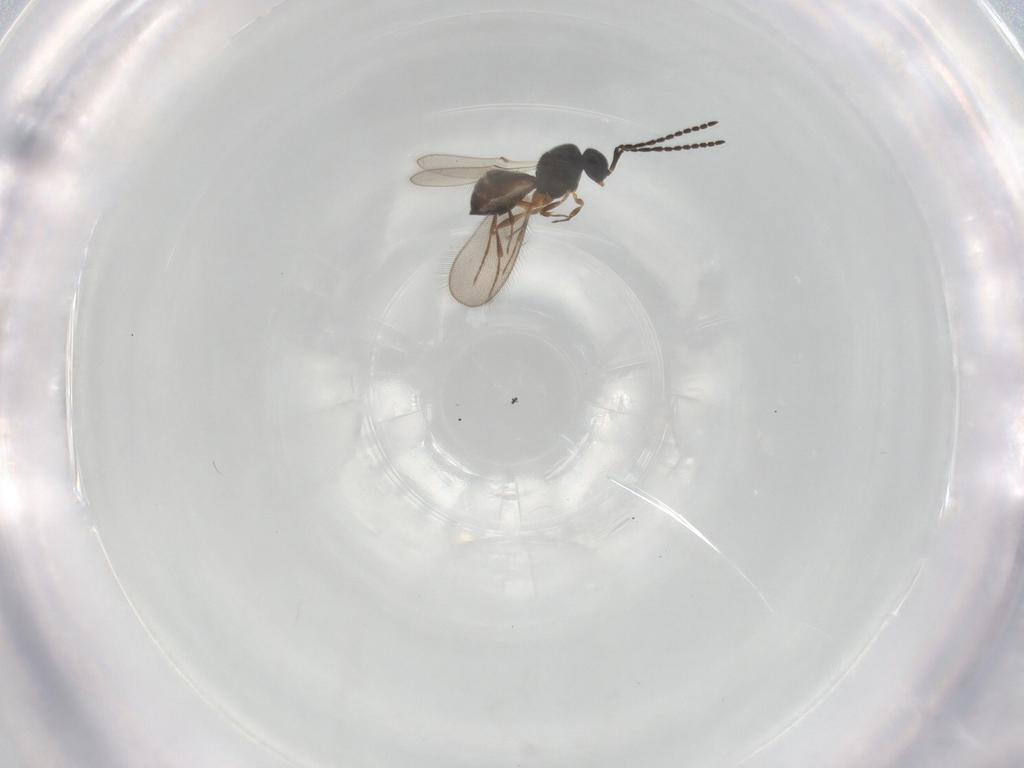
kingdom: Animalia
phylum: Arthropoda
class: Insecta
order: Hymenoptera
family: Scelionidae
